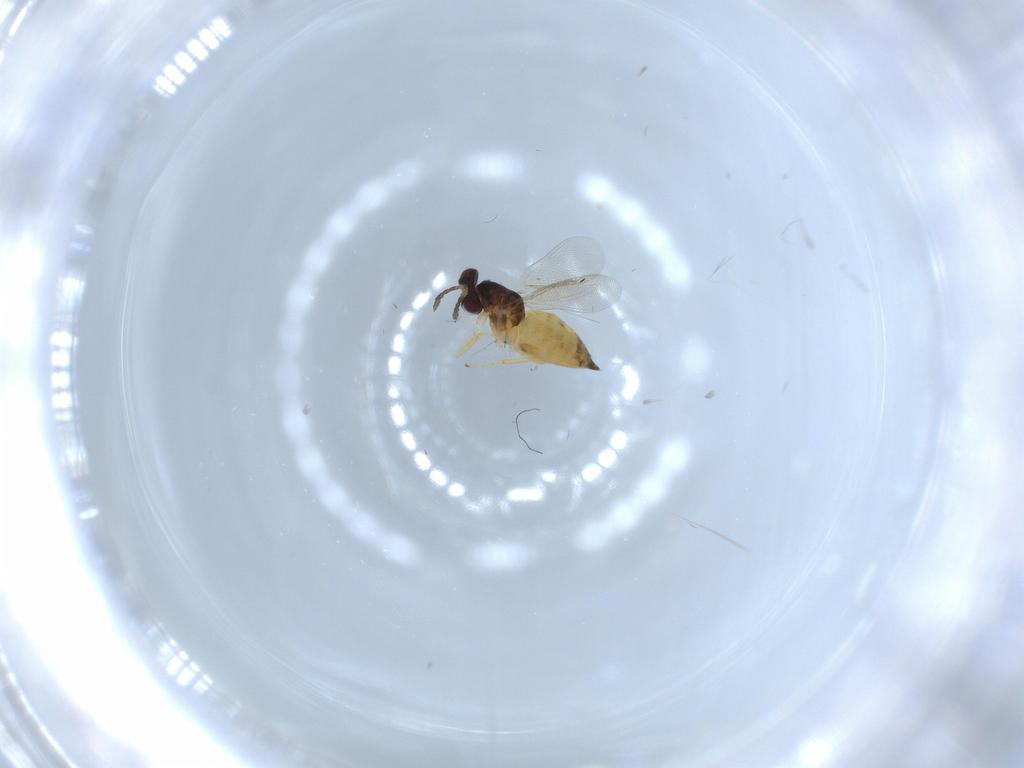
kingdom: Animalia
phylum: Arthropoda
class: Insecta
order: Hymenoptera
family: Eulophidae
